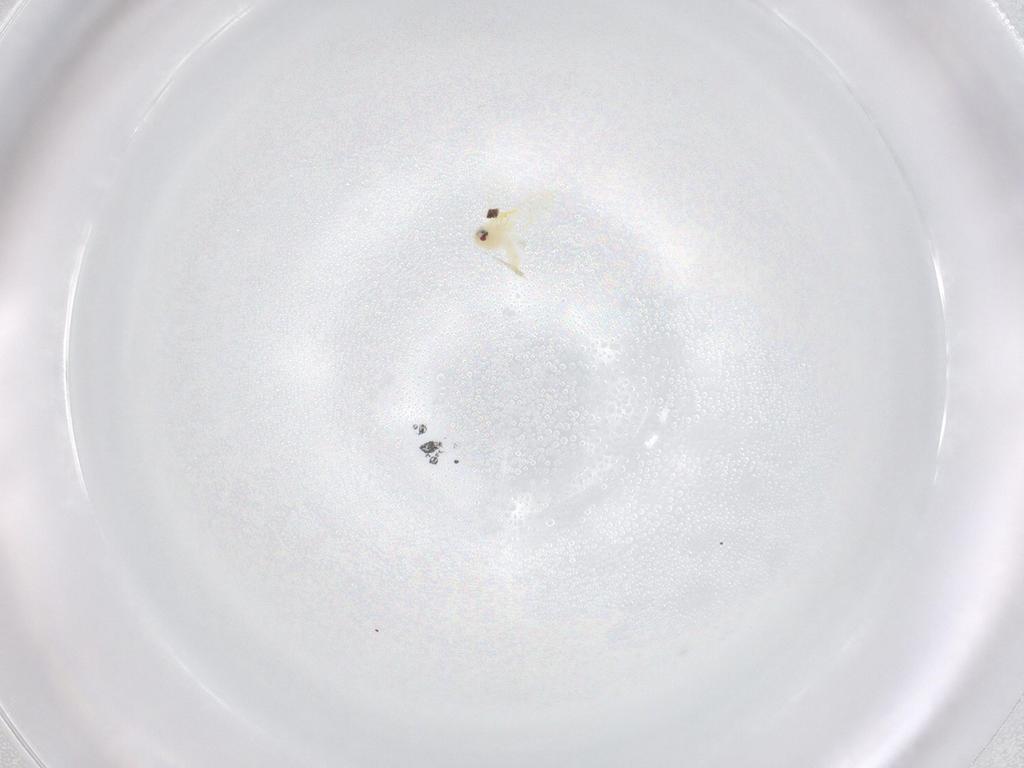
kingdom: Animalia
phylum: Arthropoda
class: Insecta
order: Hemiptera
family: Aleyrodidae
